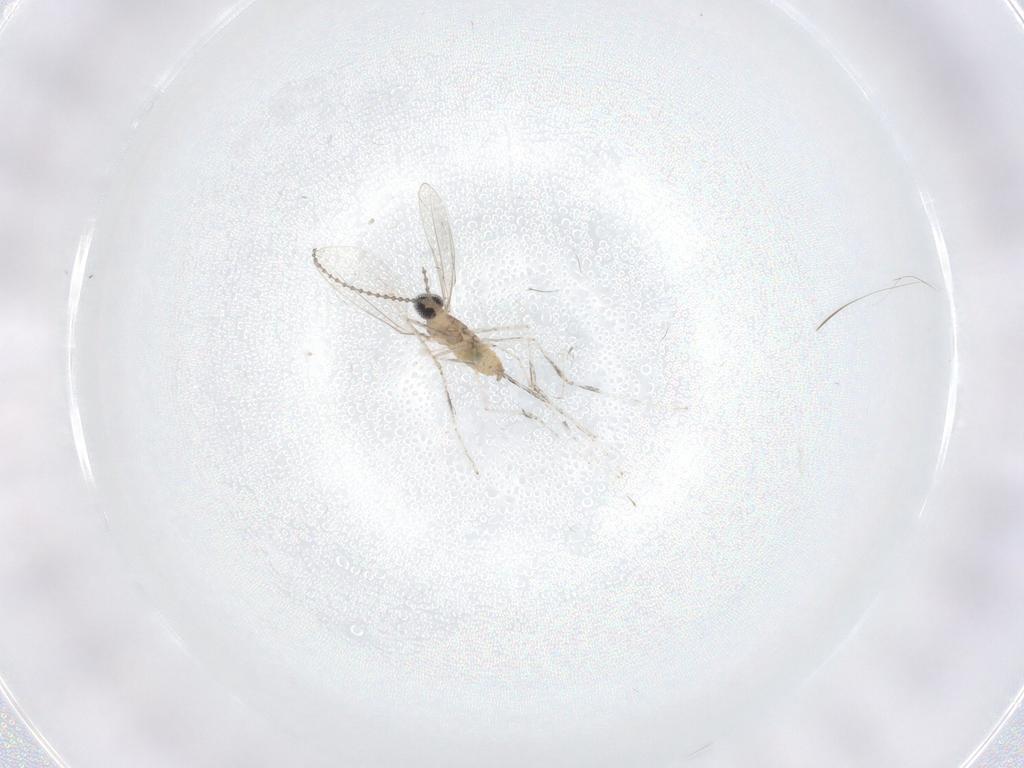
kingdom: Animalia
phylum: Arthropoda
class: Insecta
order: Diptera
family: Cecidomyiidae
